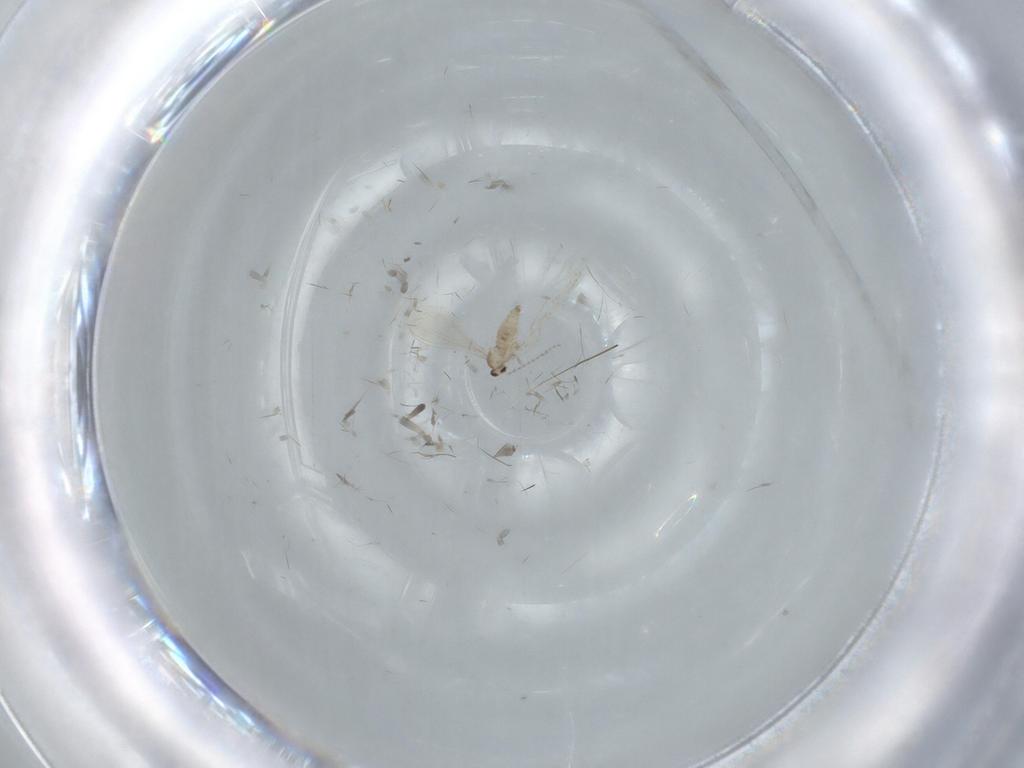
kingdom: Animalia
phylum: Arthropoda
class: Insecta
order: Diptera
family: Cecidomyiidae
